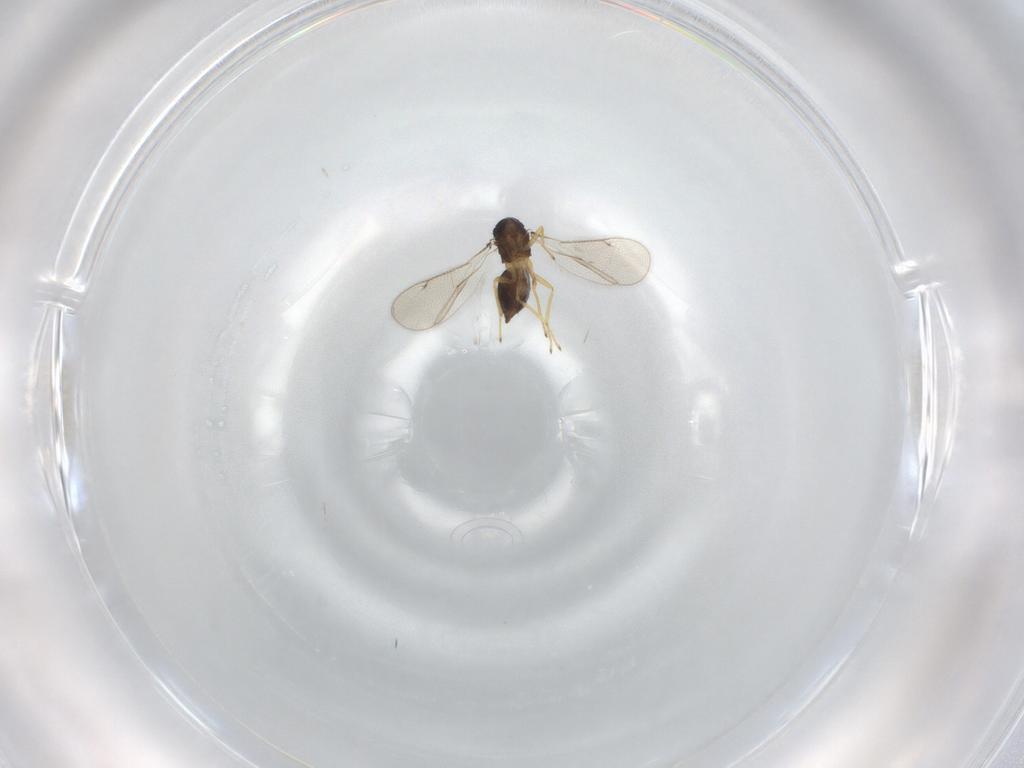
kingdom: Animalia
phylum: Arthropoda
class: Insecta
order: Hymenoptera
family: Eulophidae
